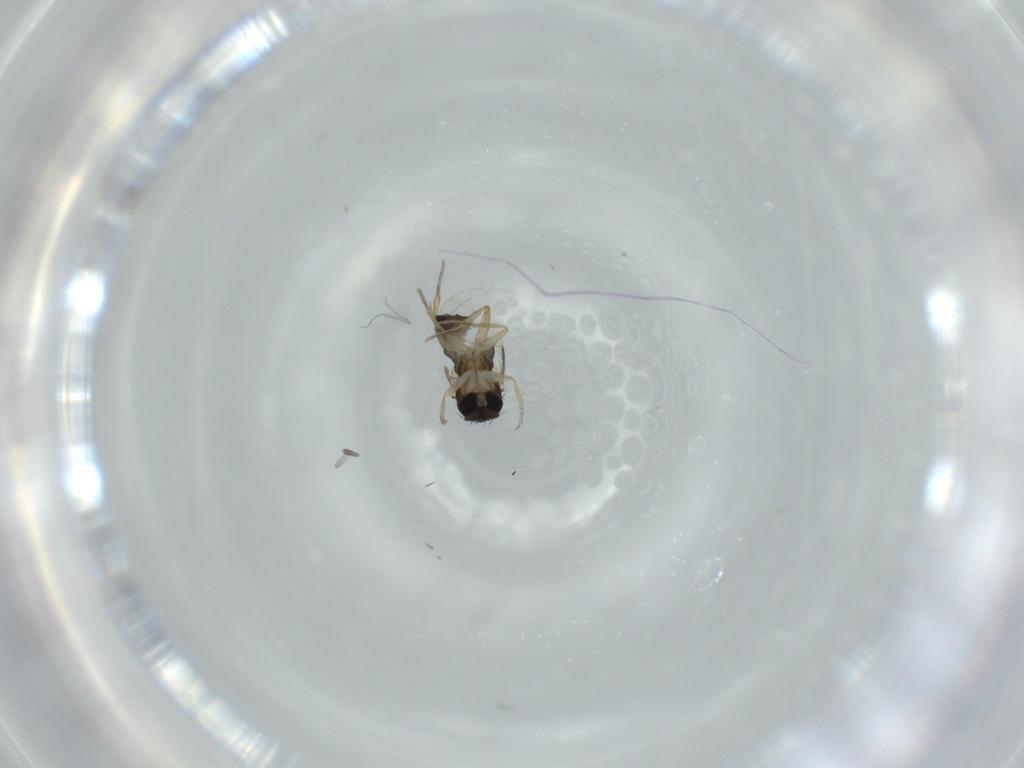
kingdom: Animalia
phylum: Arthropoda
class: Insecta
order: Diptera
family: Phoridae
